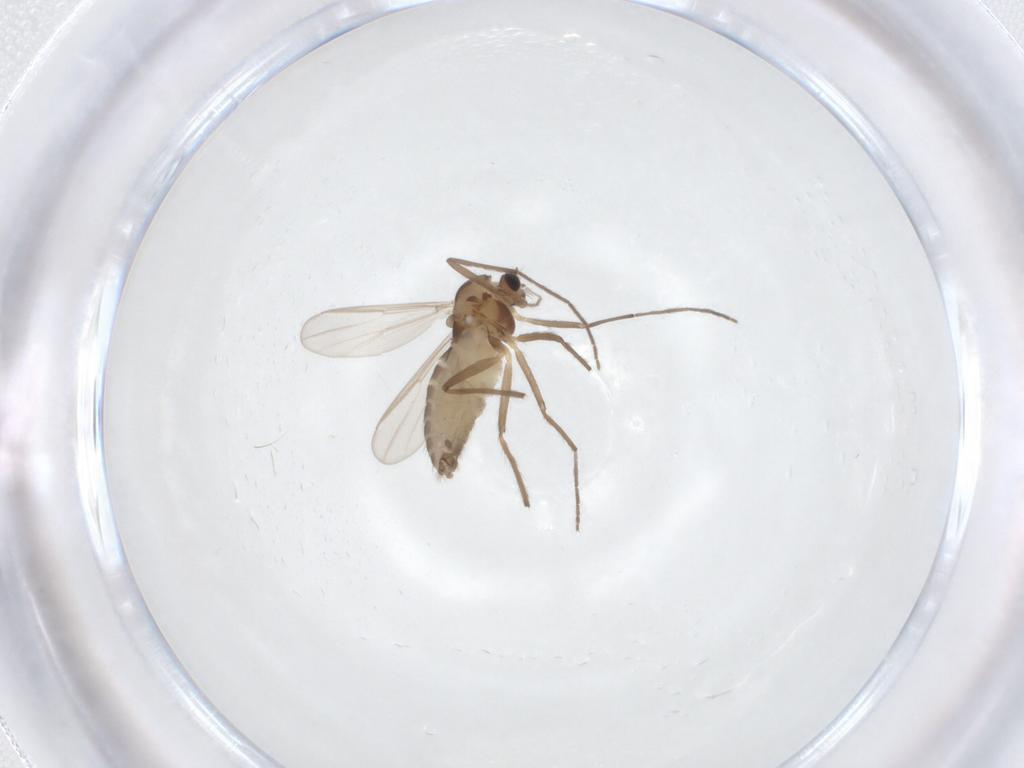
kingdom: Animalia
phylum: Arthropoda
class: Insecta
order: Diptera
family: Chironomidae
